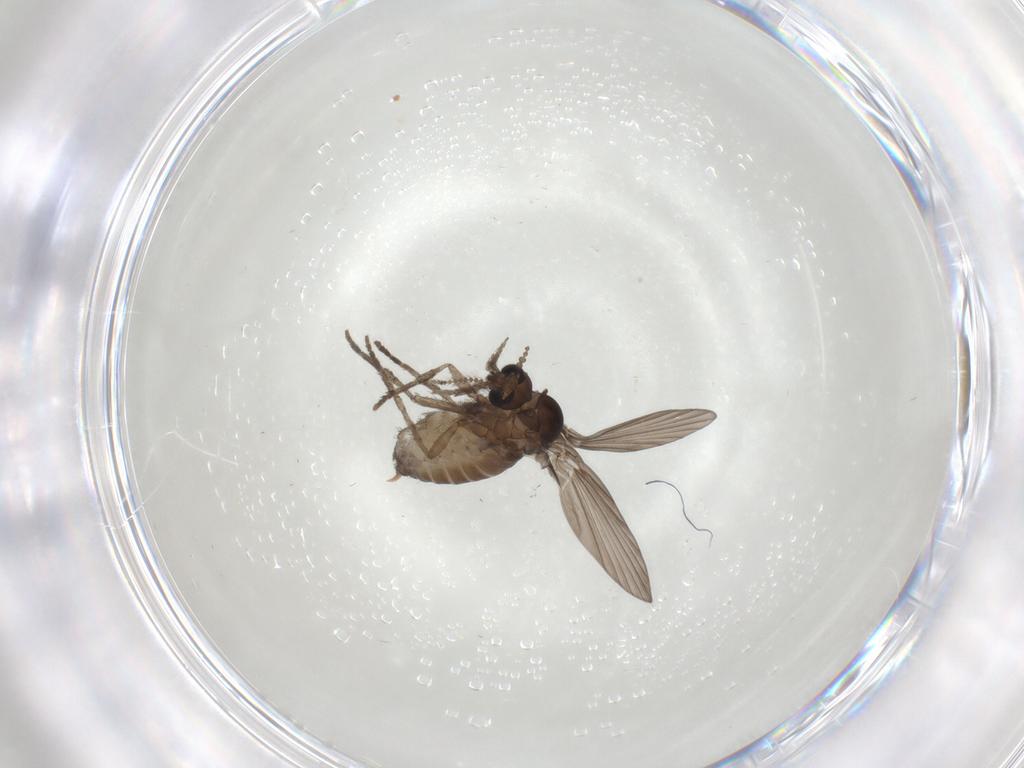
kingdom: Animalia
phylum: Arthropoda
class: Insecta
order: Diptera
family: Psychodidae
